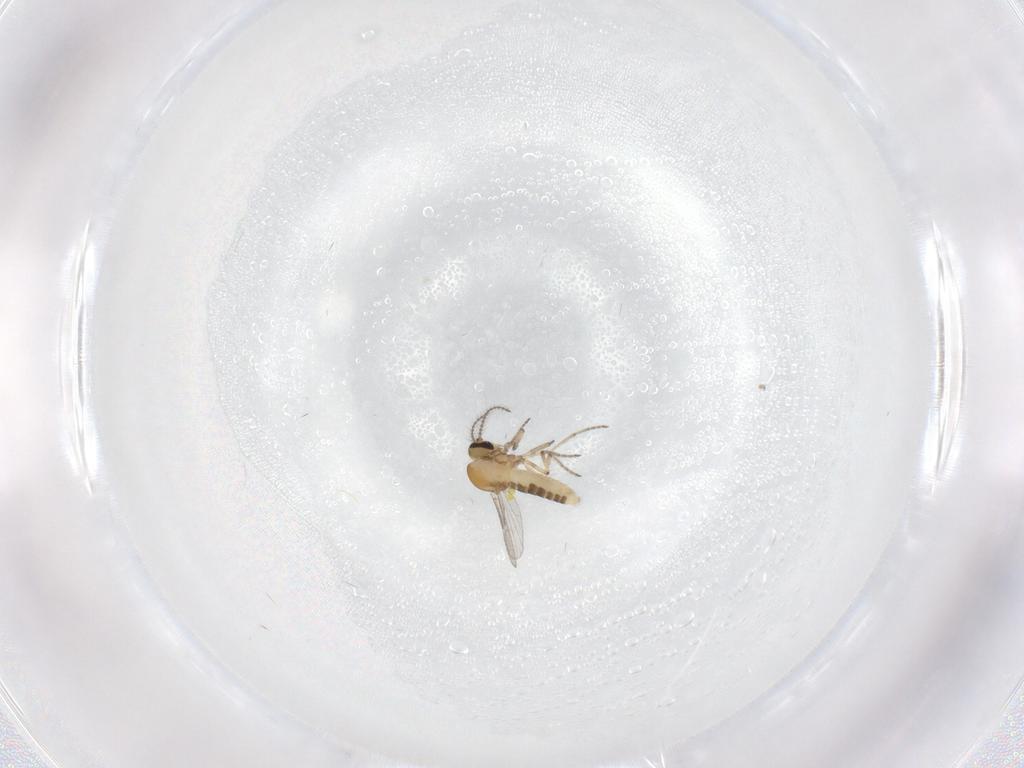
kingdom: Animalia
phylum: Arthropoda
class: Insecta
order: Diptera
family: Ceratopogonidae
